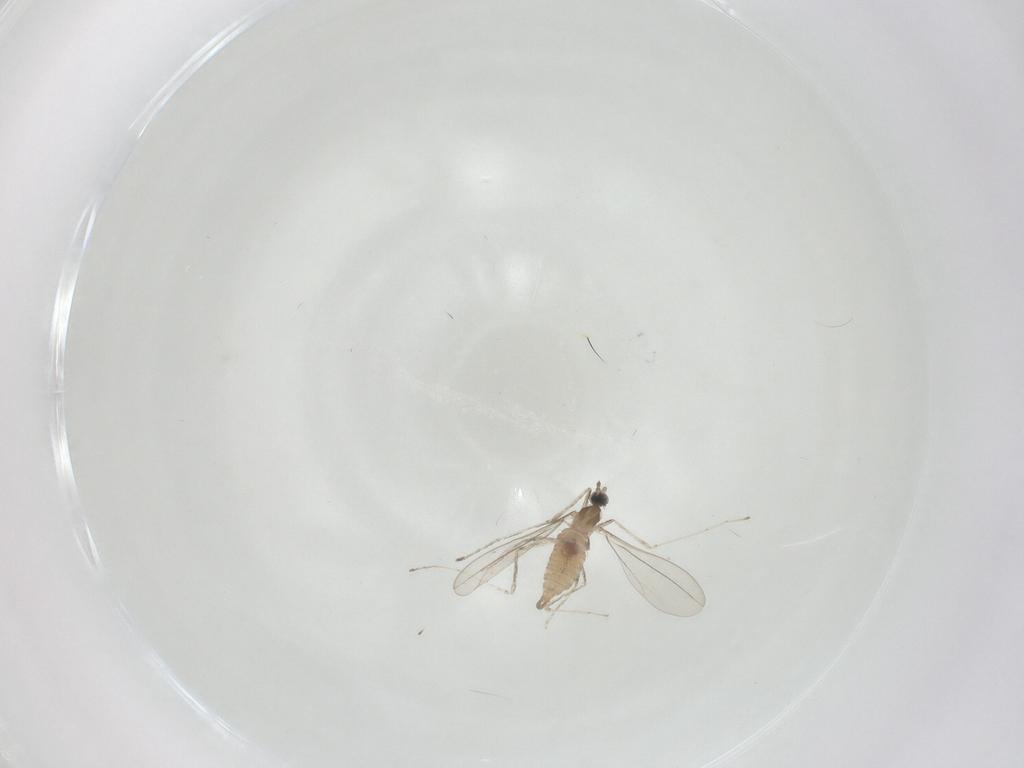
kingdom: Animalia
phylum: Arthropoda
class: Insecta
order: Diptera
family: Cecidomyiidae
